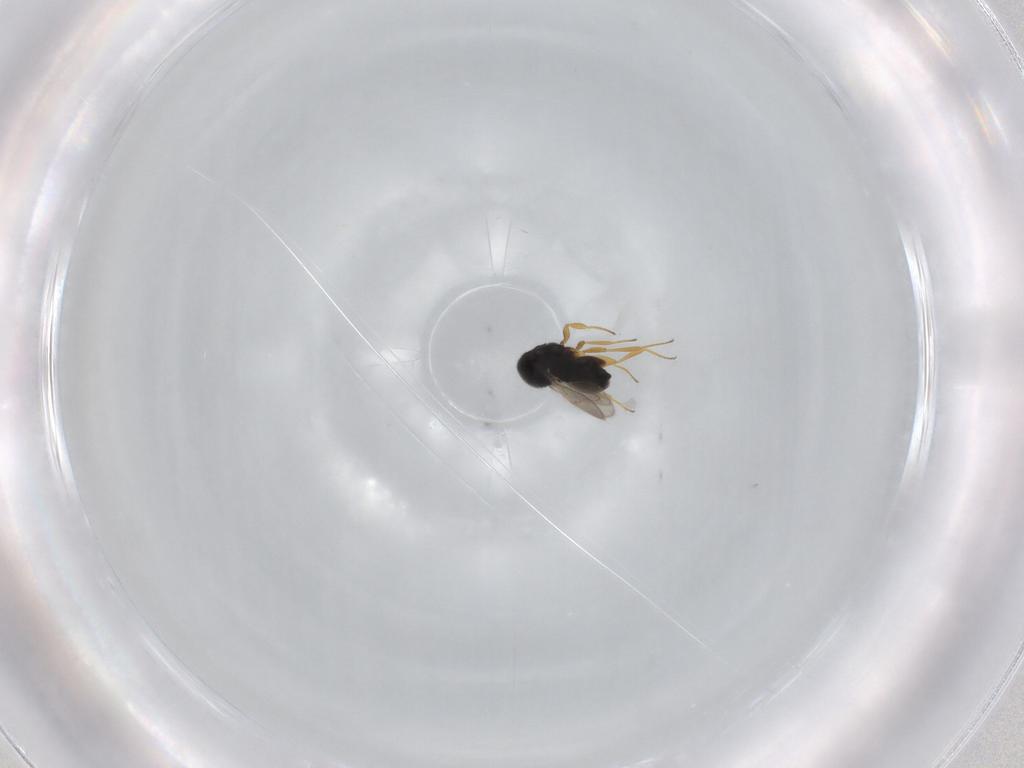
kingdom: Animalia
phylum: Arthropoda
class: Insecta
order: Hymenoptera
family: Scelionidae
